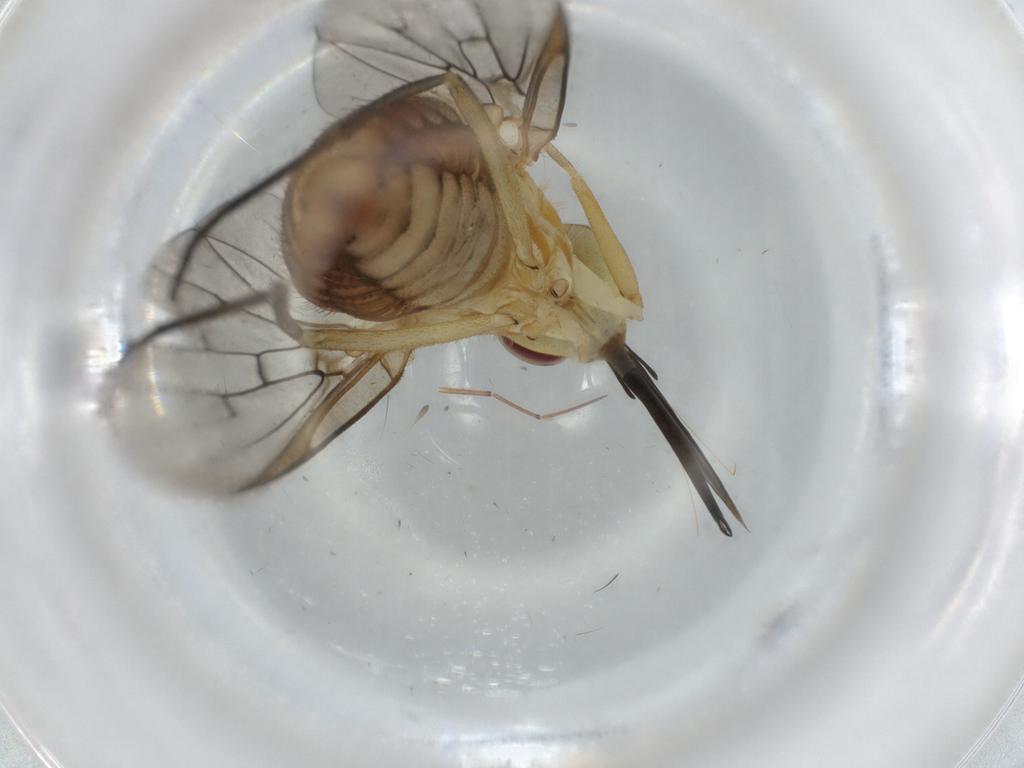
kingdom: Animalia
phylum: Arthropoda
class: Insecta
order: Diptera
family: Bombyliidae
